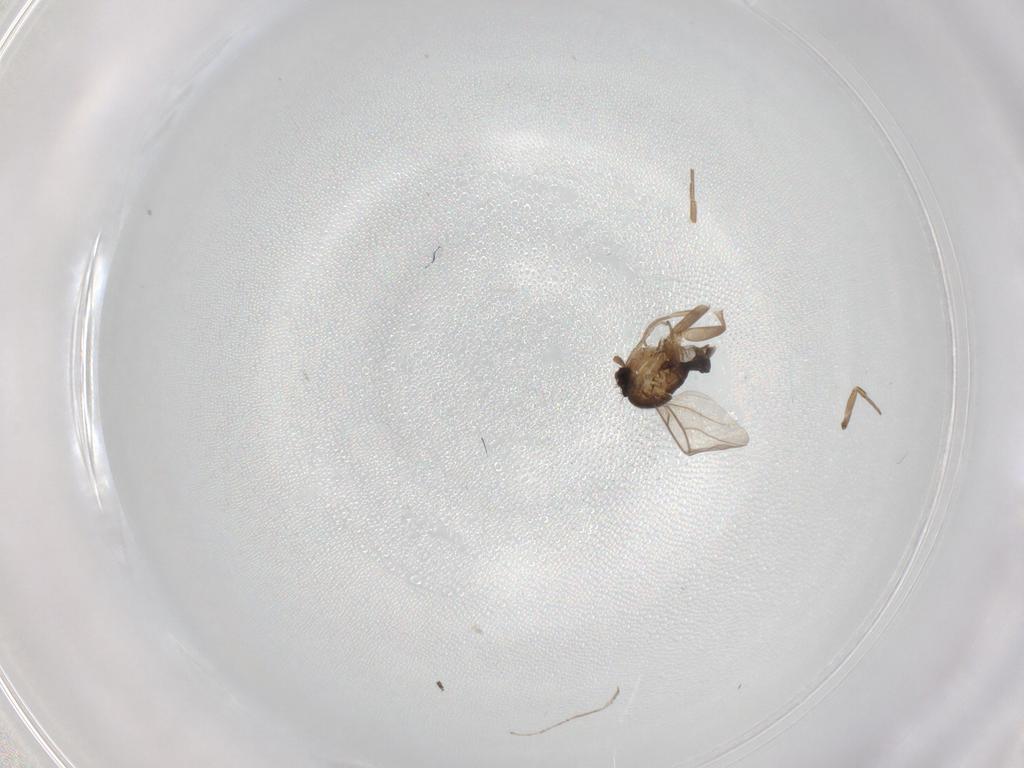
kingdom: Animalia
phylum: Arthropoda
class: Insecta
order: Diptera
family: Phoridae
